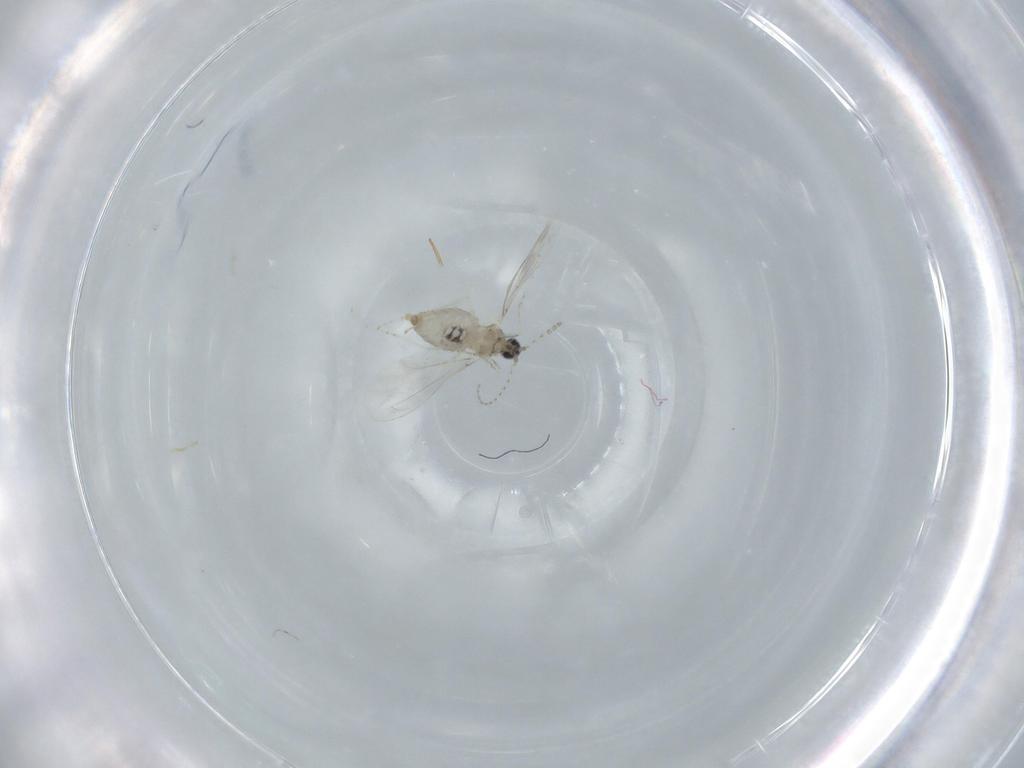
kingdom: Animalia
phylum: Arthropoda
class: Insecta
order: Diptera
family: Cecidomyiidae
